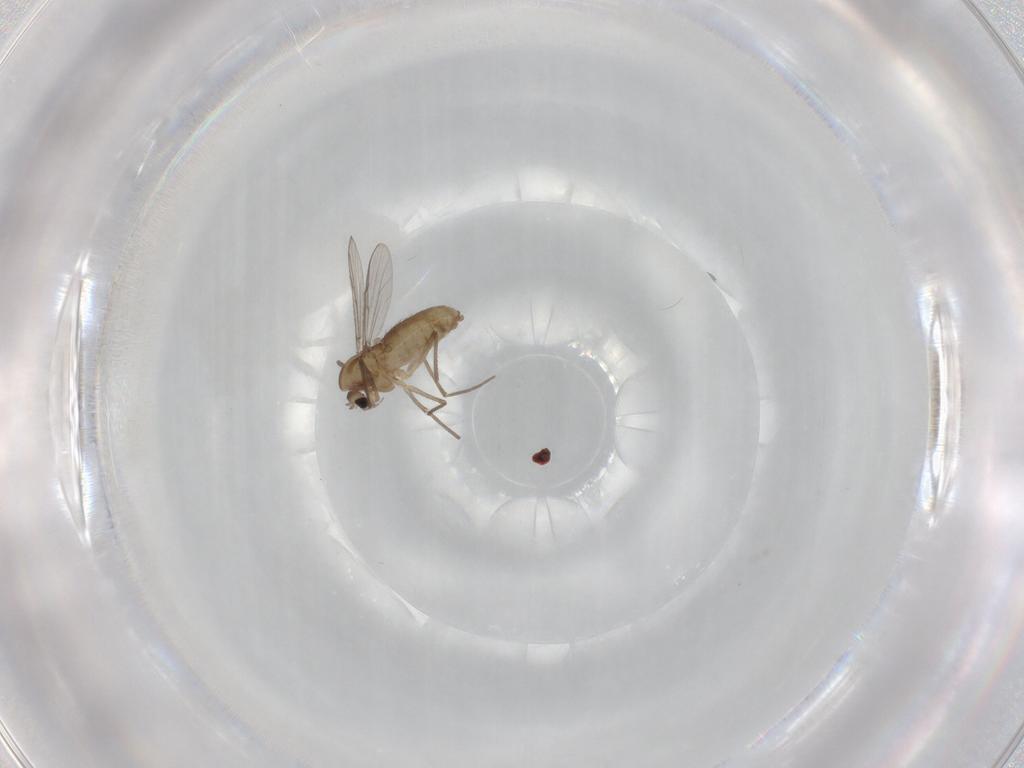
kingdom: Animalia
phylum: Arthropoda
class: Insecta
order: Diptera
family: Chironomidae
